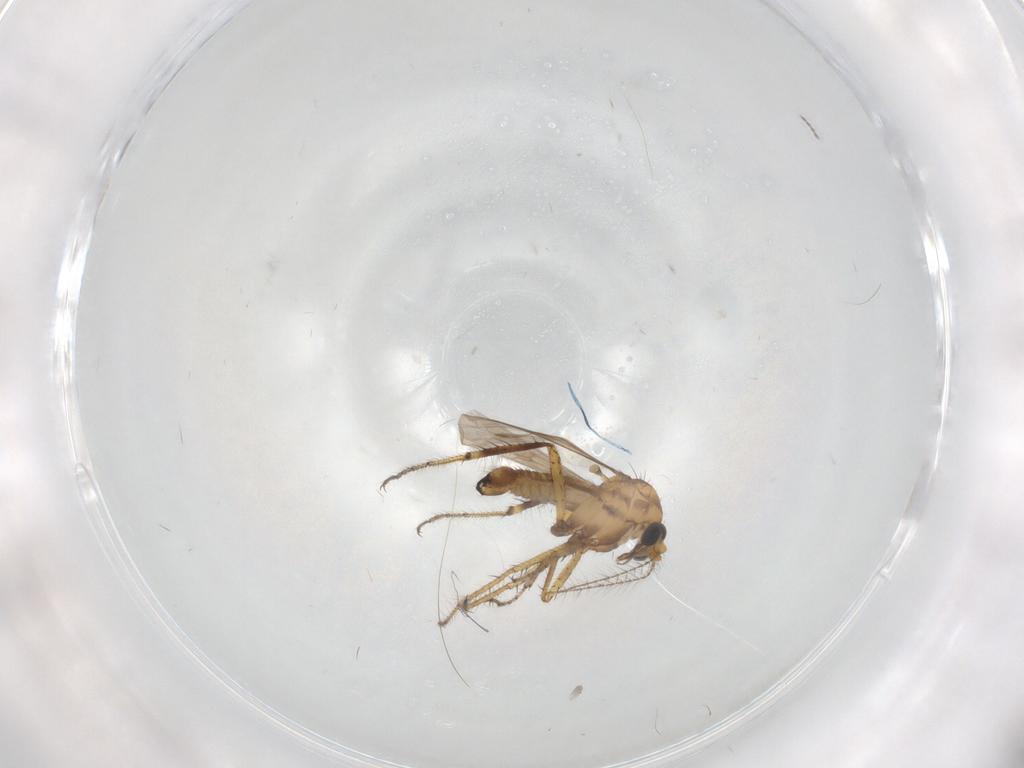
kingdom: Animalia
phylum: Arthropoda
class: Insecta
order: Diptera
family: Cecidomyiidae
